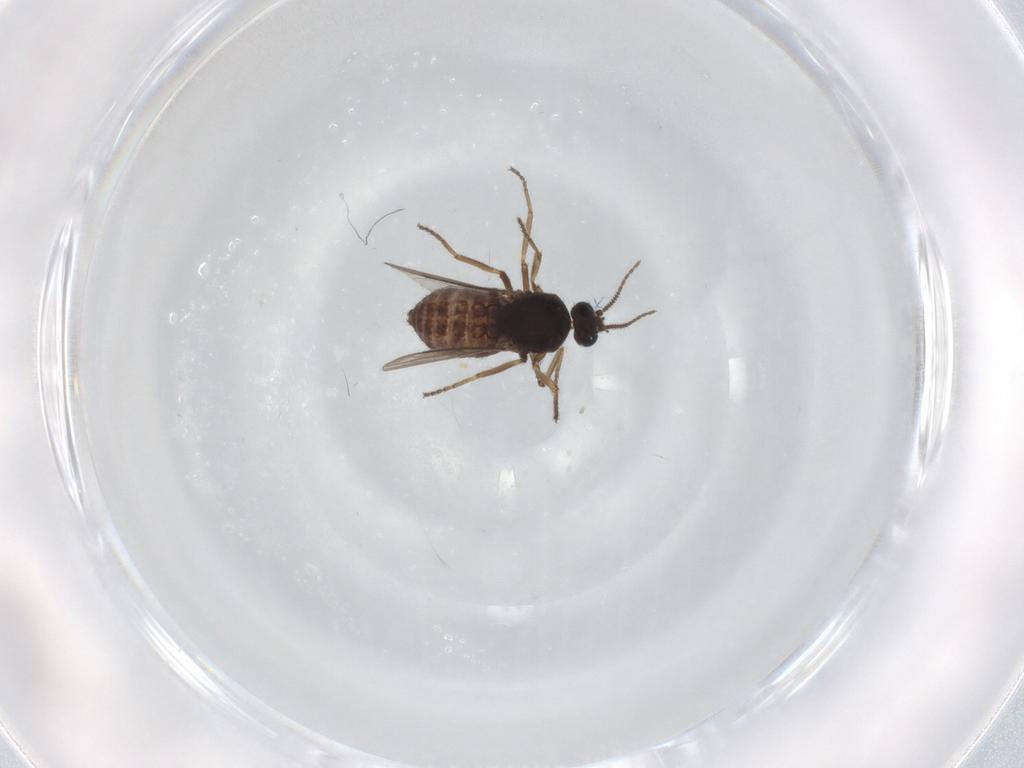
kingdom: Animalia
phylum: Arthropoda
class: Insecta
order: Diptera
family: Ceratopogonidae
